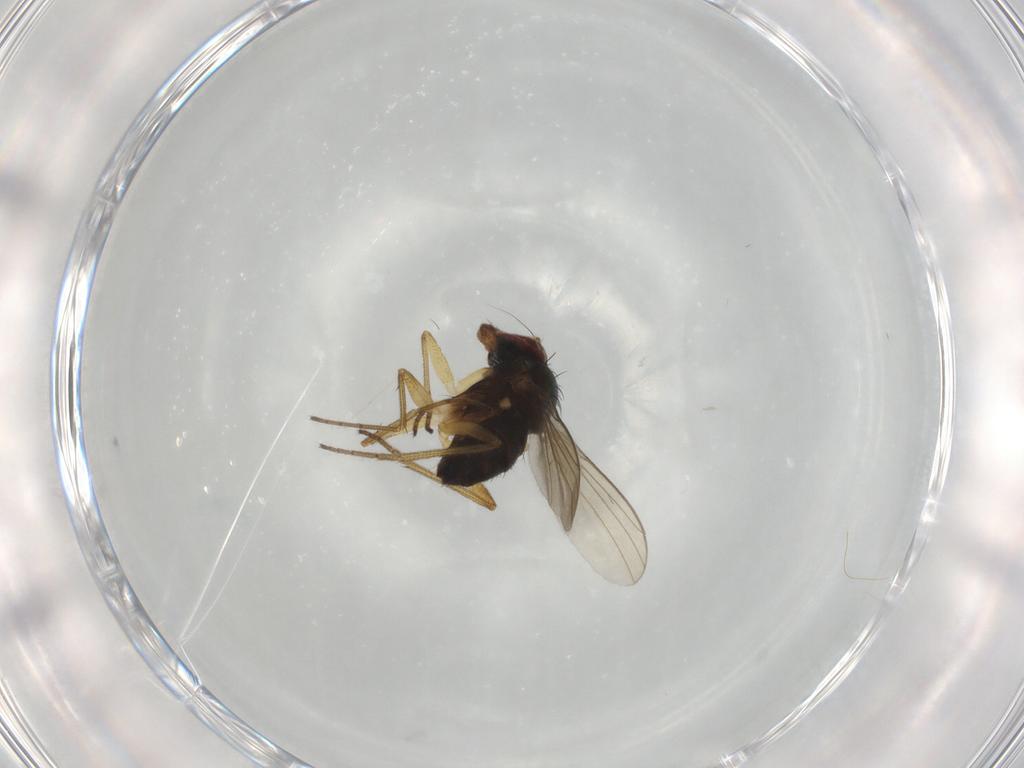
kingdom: Animalia
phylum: Arthropoda
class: Insecta
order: Diptera
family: Dolichopodidae
